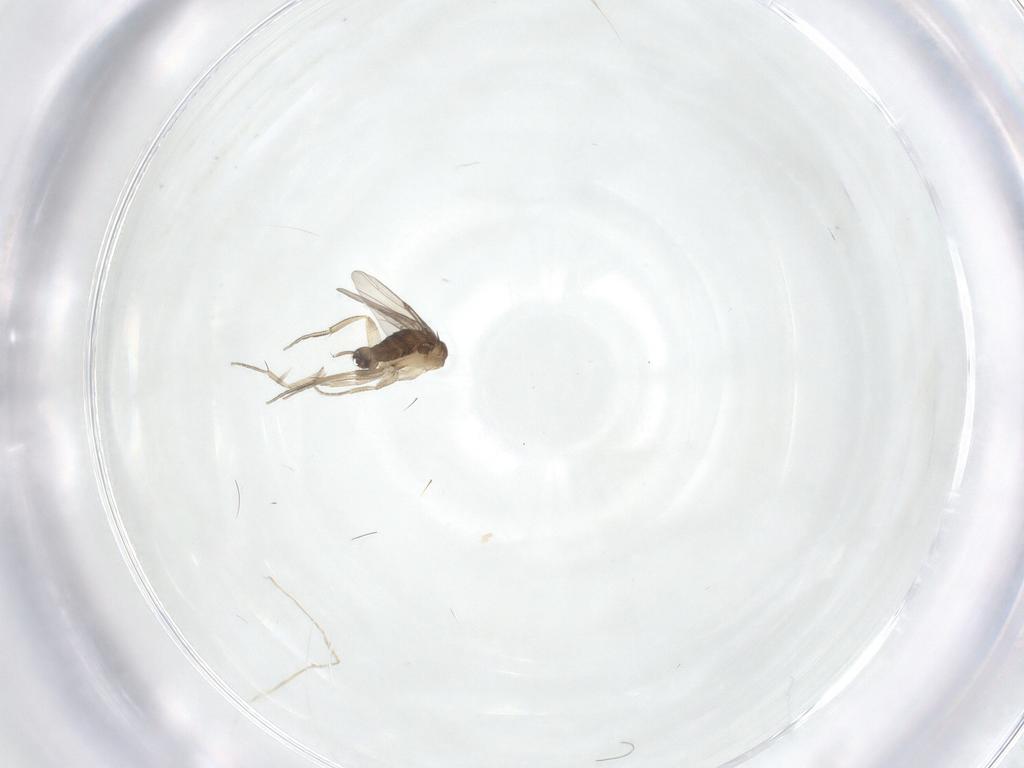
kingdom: Animalia
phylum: Arthropoda
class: Insecta
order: Diptera
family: Phoridae
